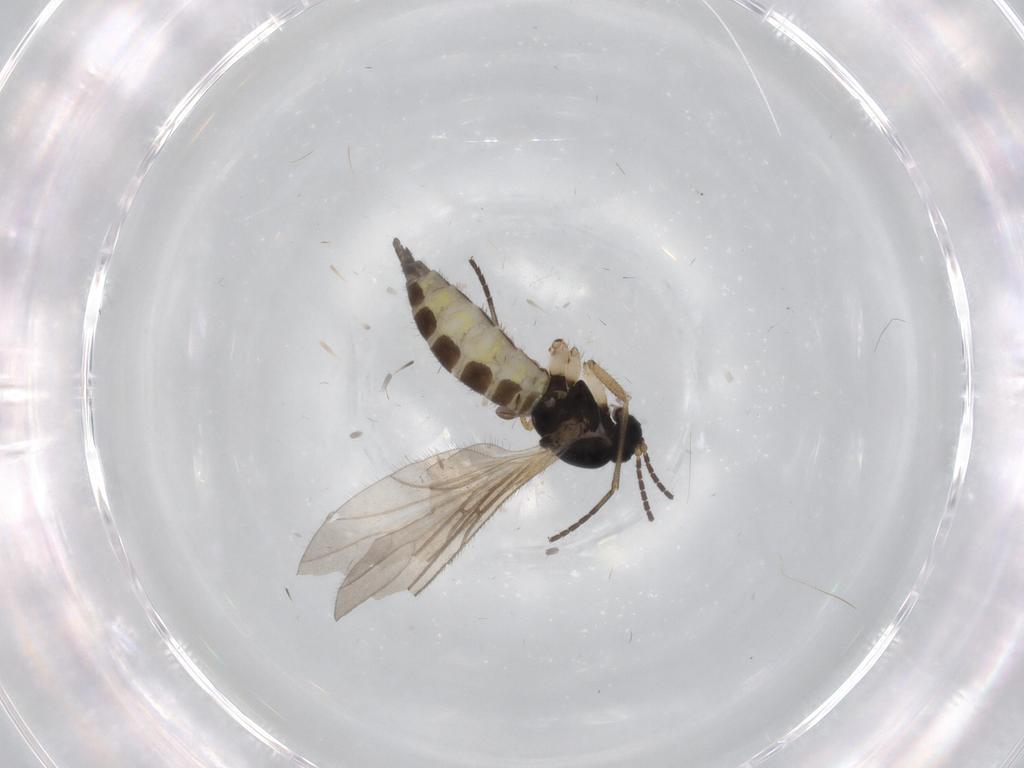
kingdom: Animalia
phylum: Arthropoda
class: Insecta
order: Diptera
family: Sciaridae
